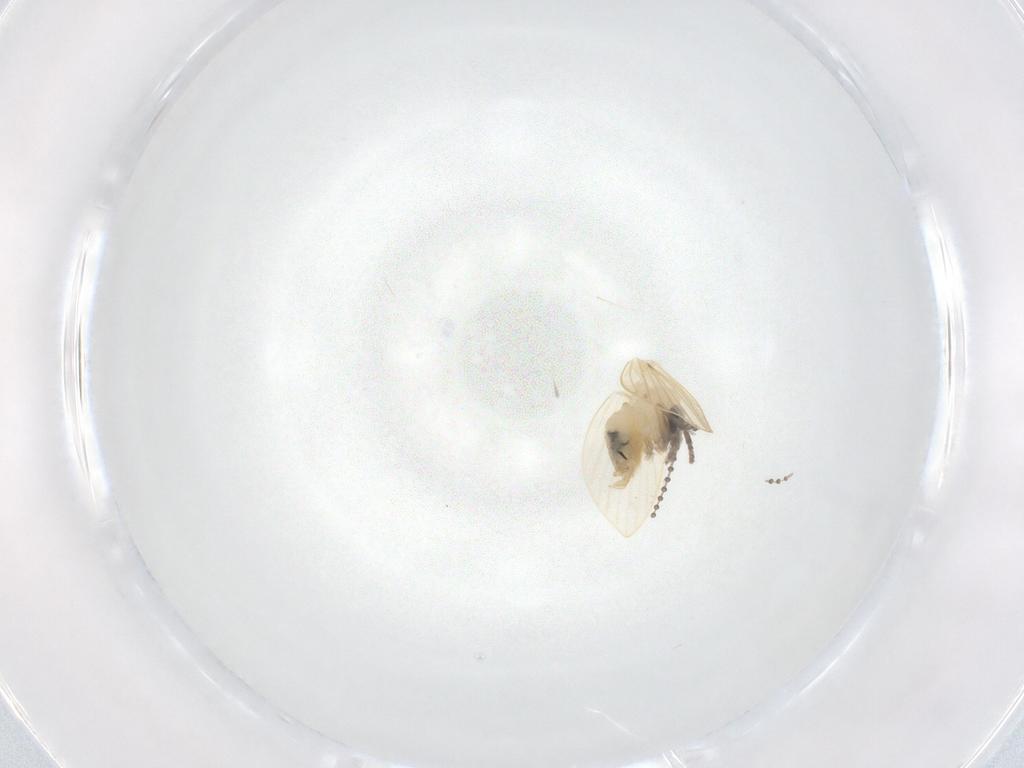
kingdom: Animalia
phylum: Arthropoda
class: Insecta
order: Diptera
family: Psychodidae
